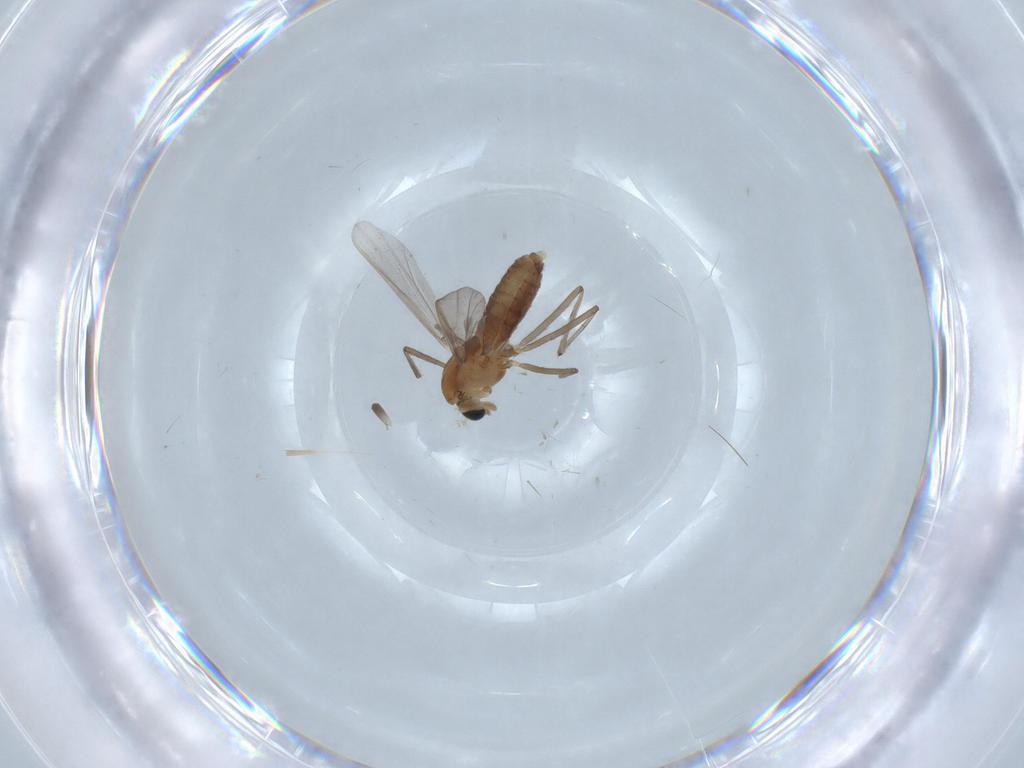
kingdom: Animalia
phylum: Arthropoda
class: Insecta
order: Diptera
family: Chironomidae
